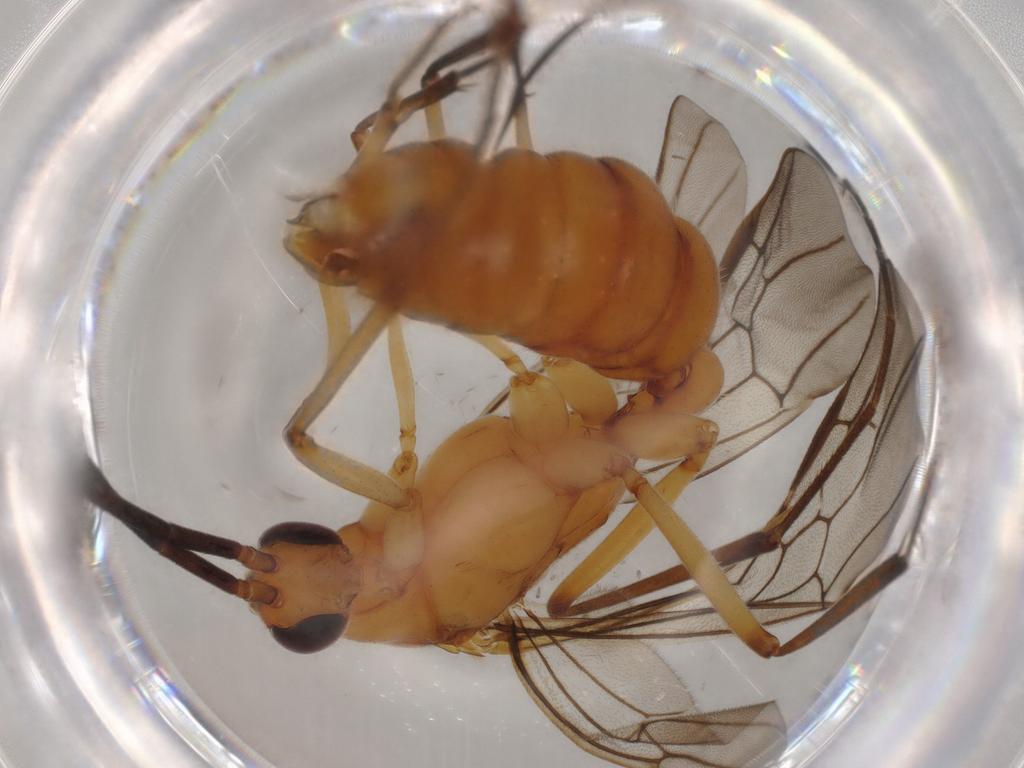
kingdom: Animalia
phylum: Arthropoda
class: Insecta
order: Hymenoptera
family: Formicidae
